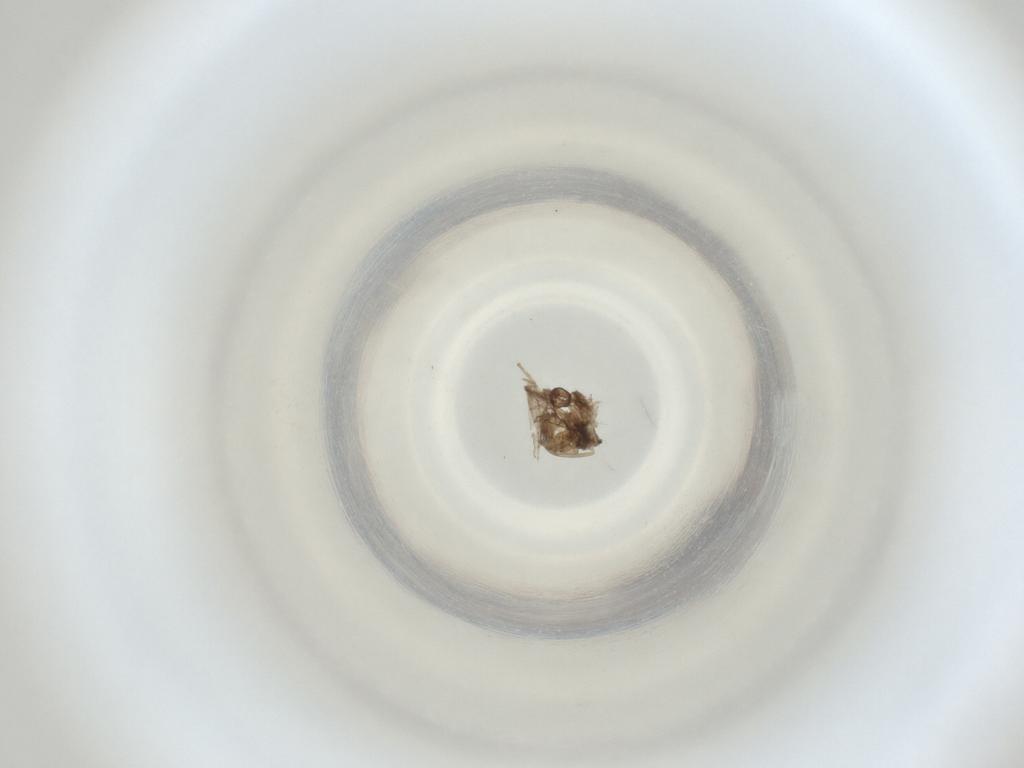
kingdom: Animalia
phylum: Arthropoda
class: Insecta
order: Diptera
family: Cecidomyiidae
